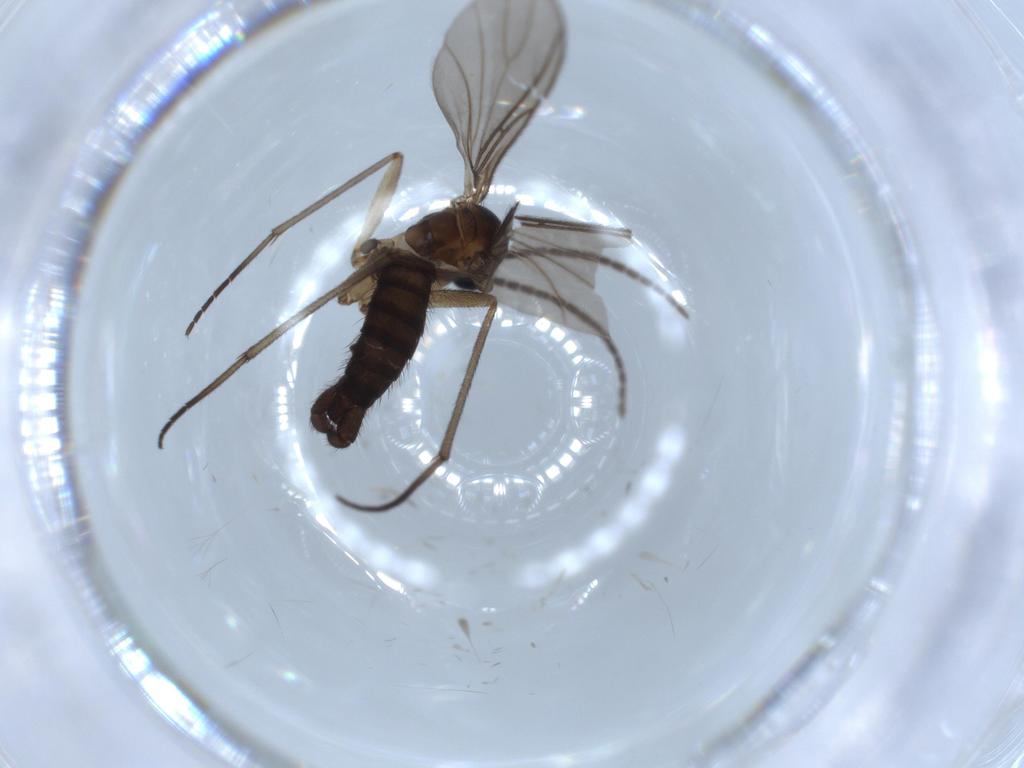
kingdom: Animalia
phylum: Arthropoda
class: Insecta
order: Diptera
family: Sciaridae
